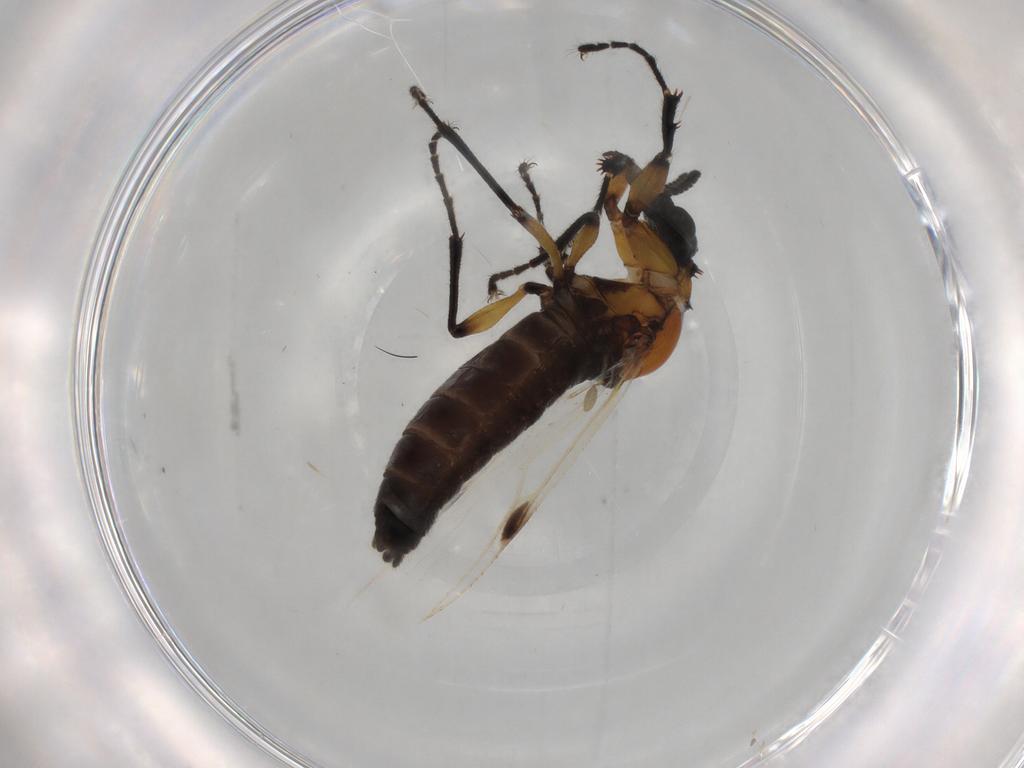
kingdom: Animalia
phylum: Arthropoda
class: Insecta
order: Diptera
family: Bibionidae
